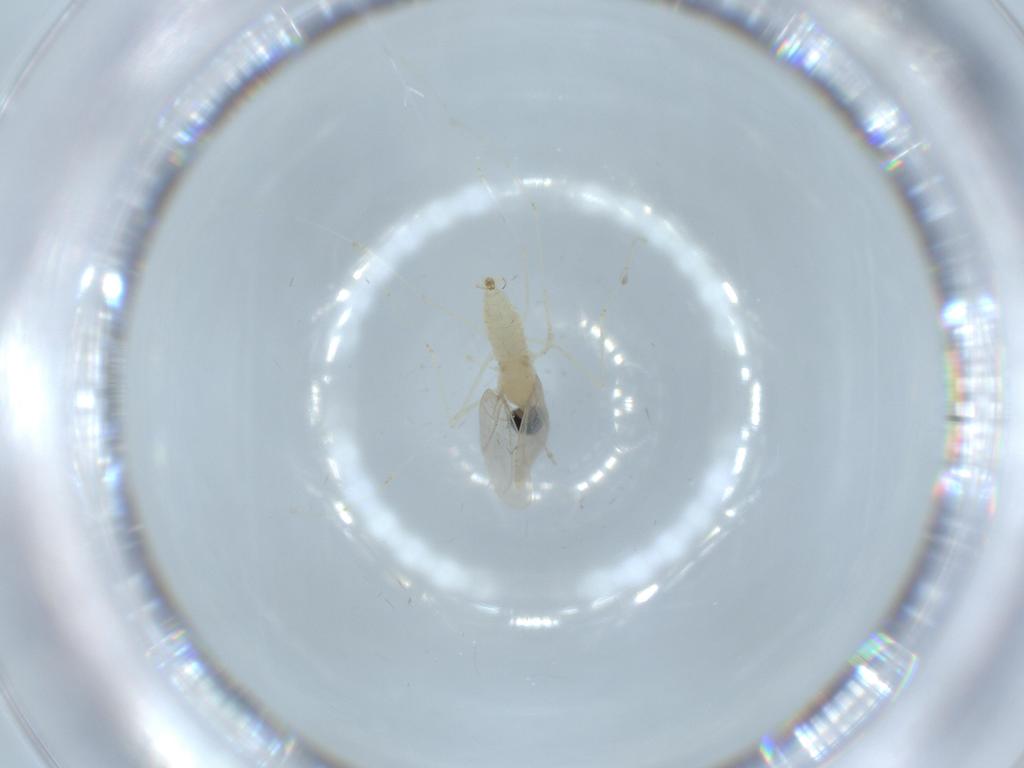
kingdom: Animalia
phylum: Arthropoda
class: Insecta
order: Diptera
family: Cecidomyiidae
